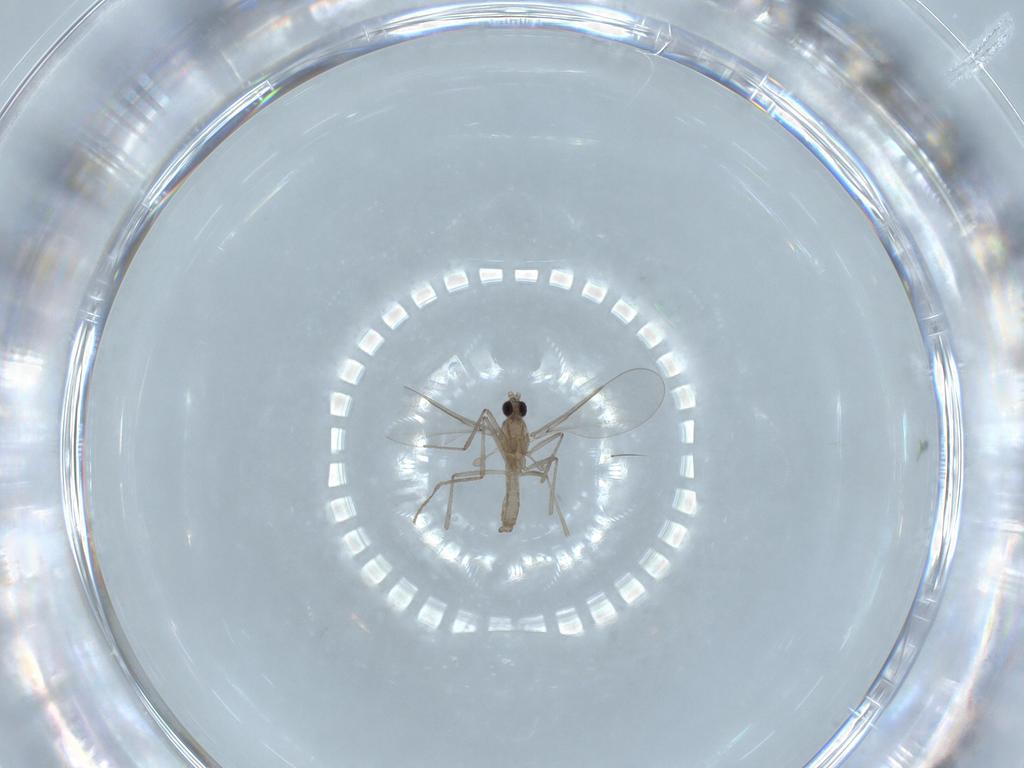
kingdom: Animalia
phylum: Arthropoda
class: Insecta
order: Diptera
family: Cecidomyiidae
